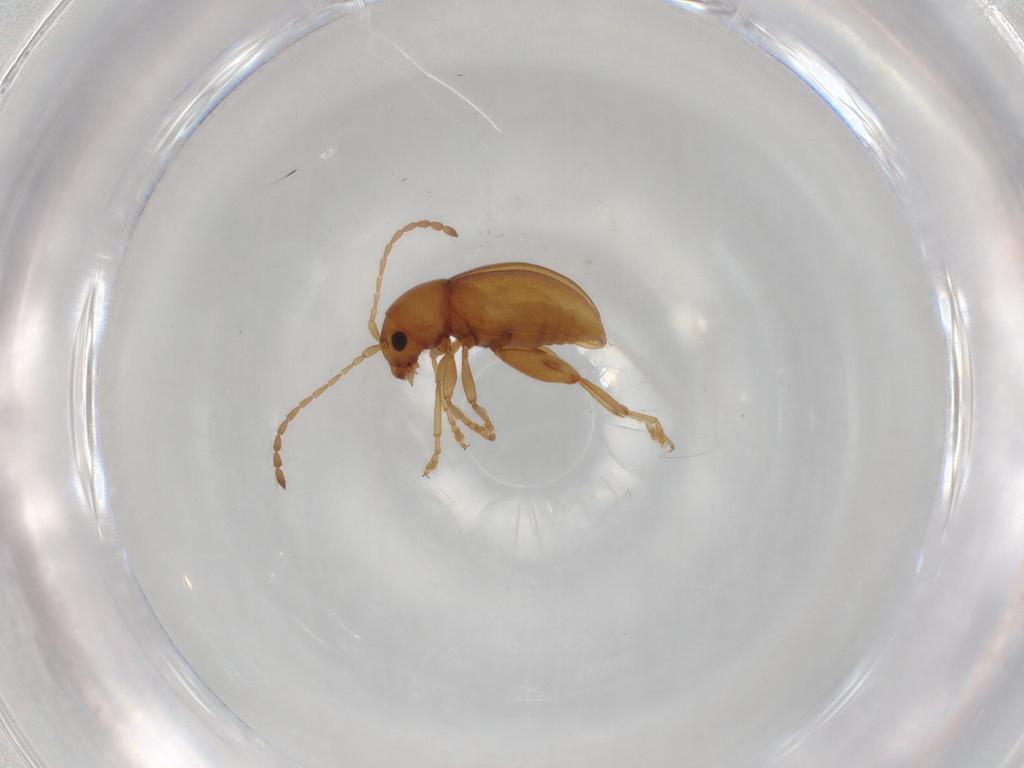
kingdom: Animalia
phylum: Arthropoda
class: Insecta
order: Coleoptera
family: Chrysomelidae
